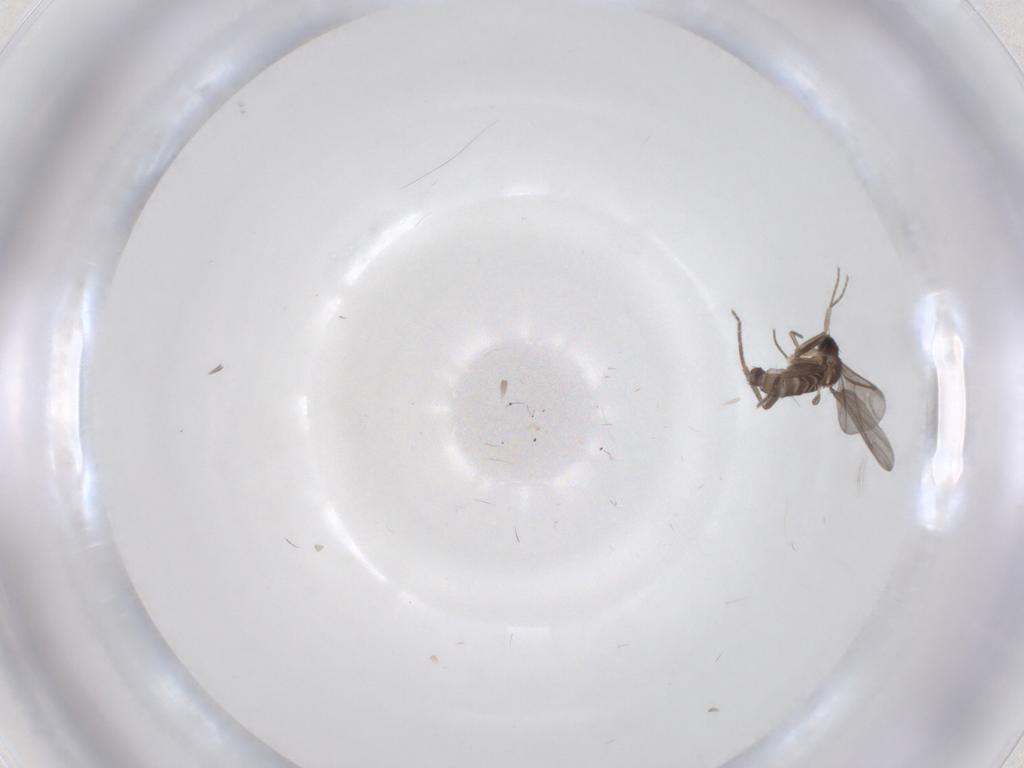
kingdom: Animalia
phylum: Arthropoda
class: Insecta
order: Diptera
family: Phoridae
